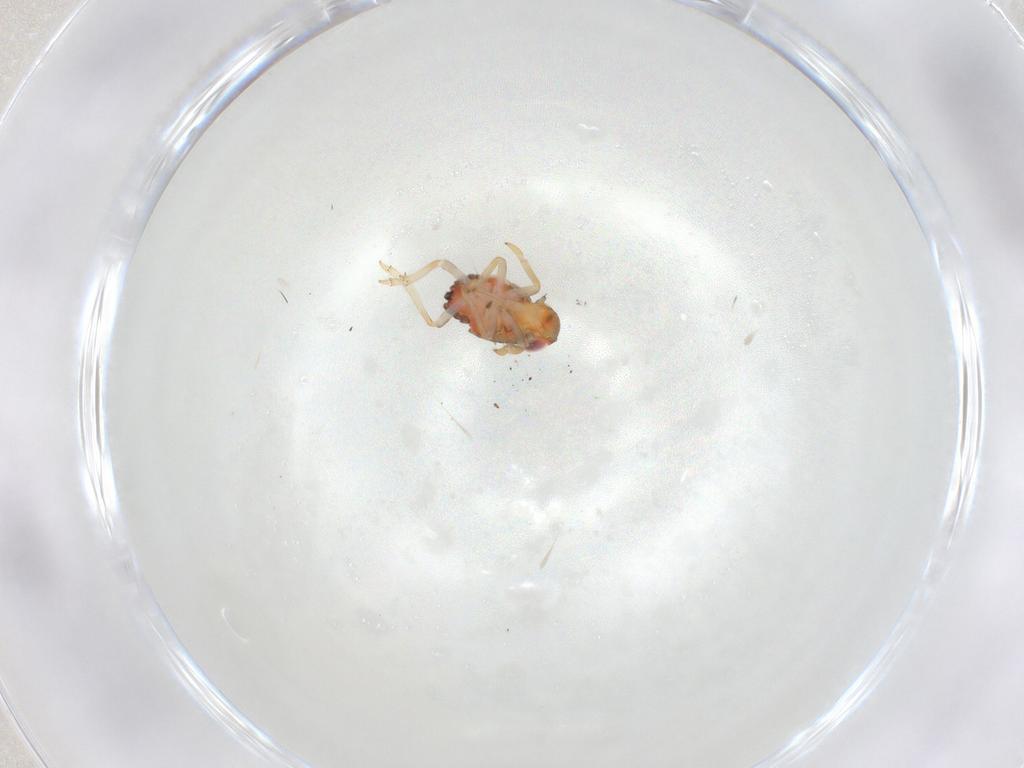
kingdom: Animalia
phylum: Arthropoda
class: Insecta
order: Hemiptera
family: Issidae
